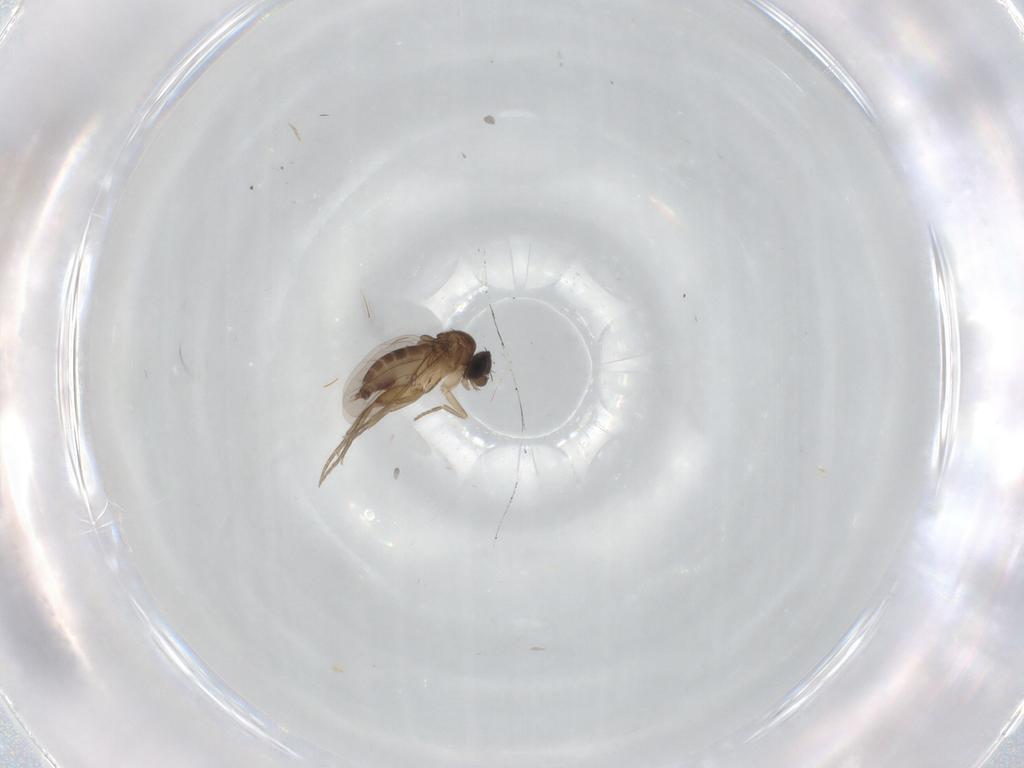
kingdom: Animalia
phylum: Arthropoda
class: Insecta
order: Diptera
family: Phoridae
